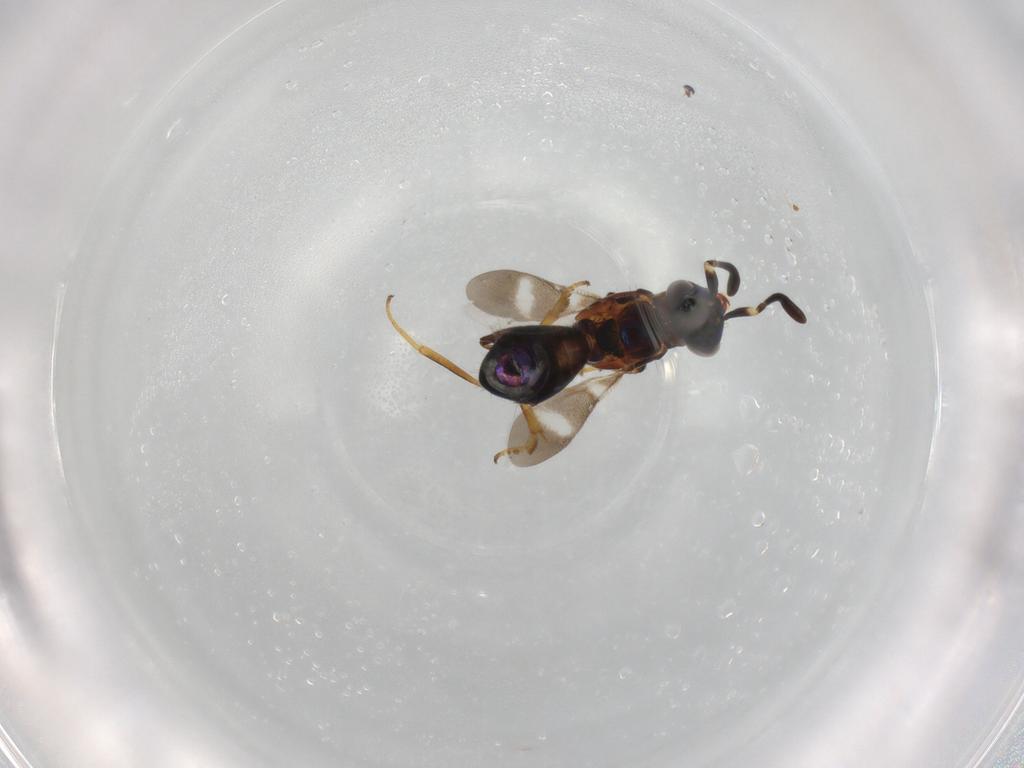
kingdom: Animalia
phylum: Arthropoda
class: Insecta
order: Hymenoptera
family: Eupelmidae
